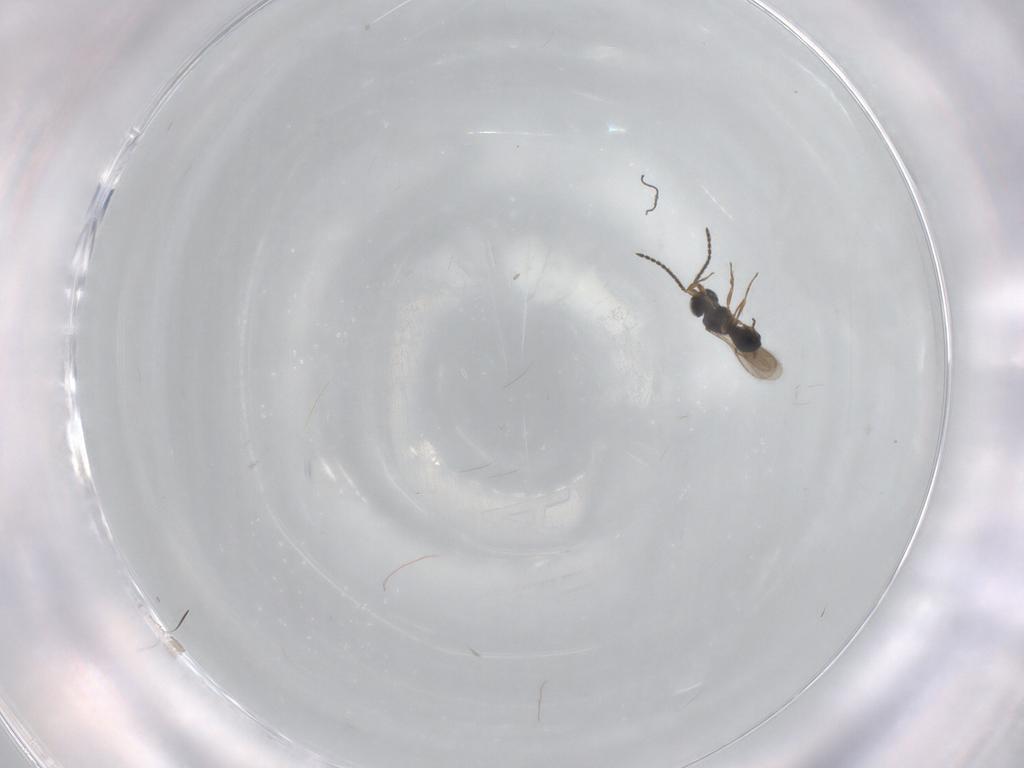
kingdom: Animalia
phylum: Arthropoda
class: Insecta
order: Hymenoptera
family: Scelionidae
